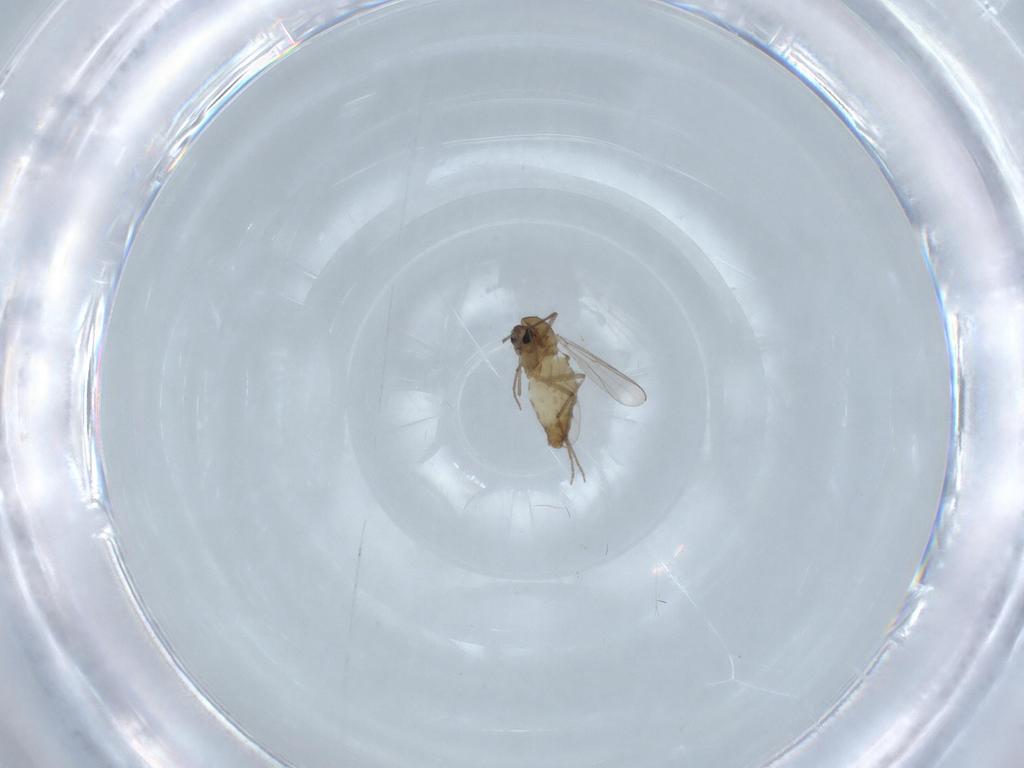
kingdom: Animalia
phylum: Arthropoda
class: Insecta
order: Diptera
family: Chironomidae
